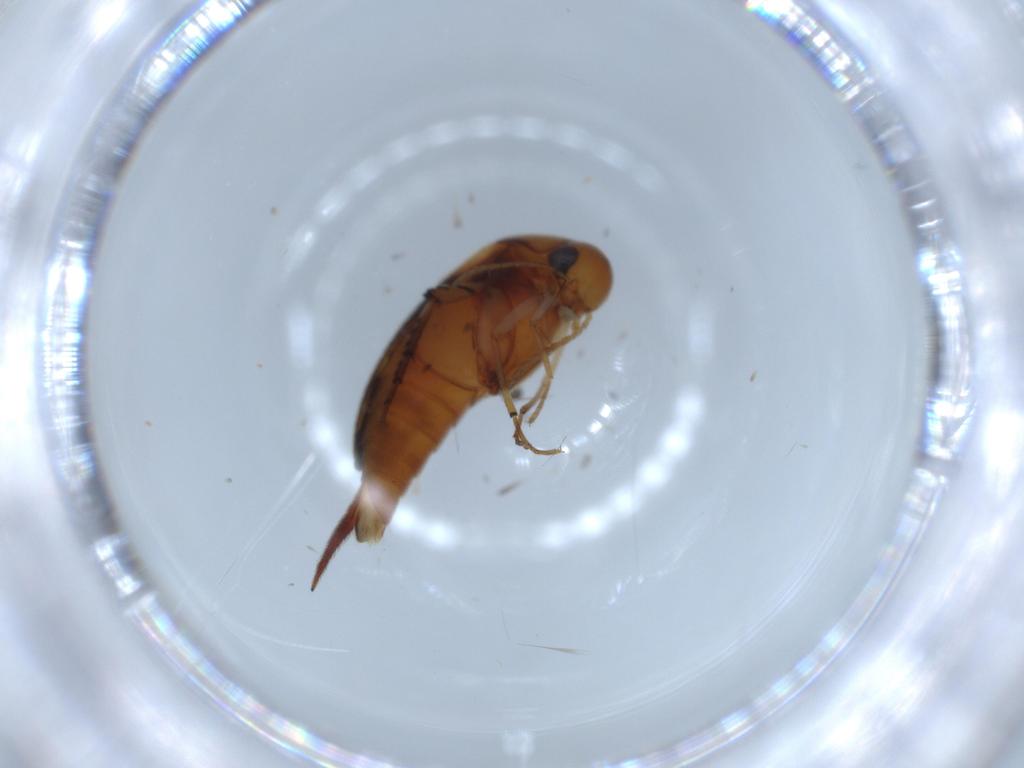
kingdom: Animalia
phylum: Arthropoda
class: Insecta
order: Coleoptera
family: Mordellidae
